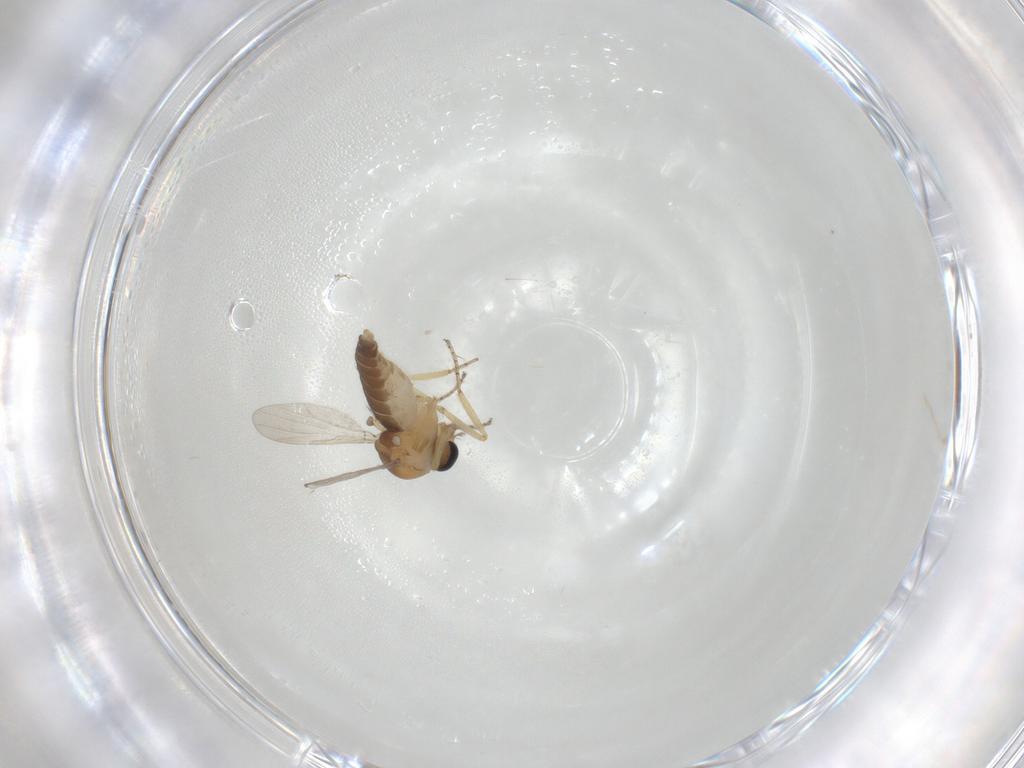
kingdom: Animalia
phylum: Arthropoda
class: Insecta
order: Diptera
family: Ceratopogonidae
